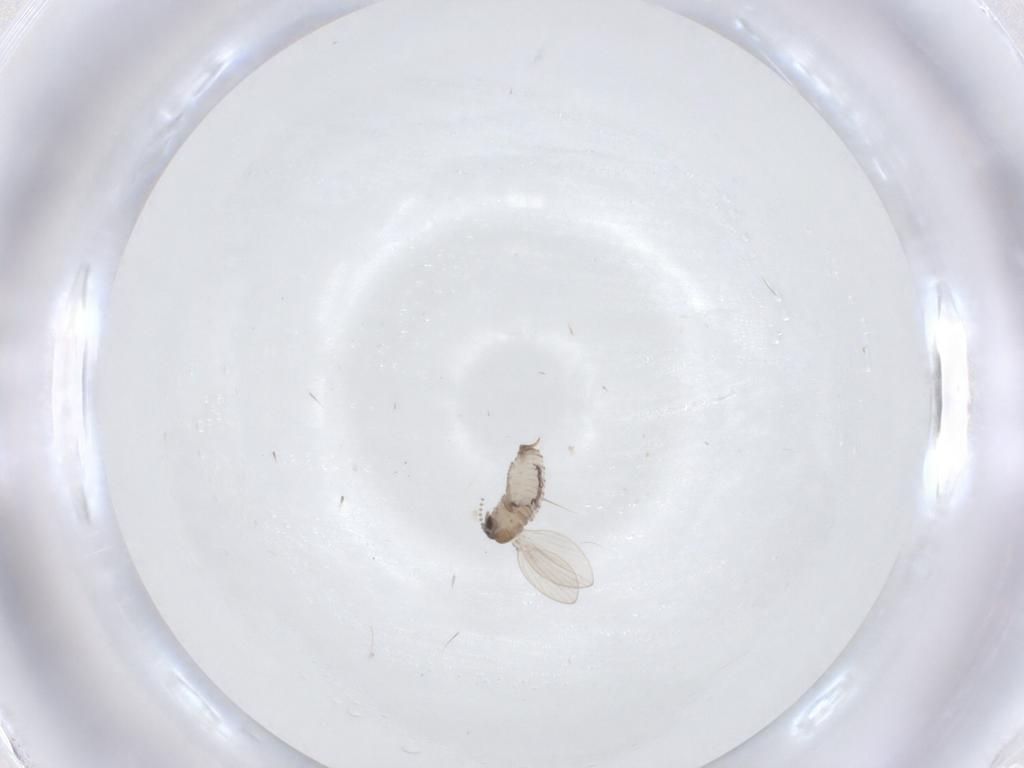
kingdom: Animalia
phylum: Arthropoda
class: Insecta
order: Diptera
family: Psychodidae
